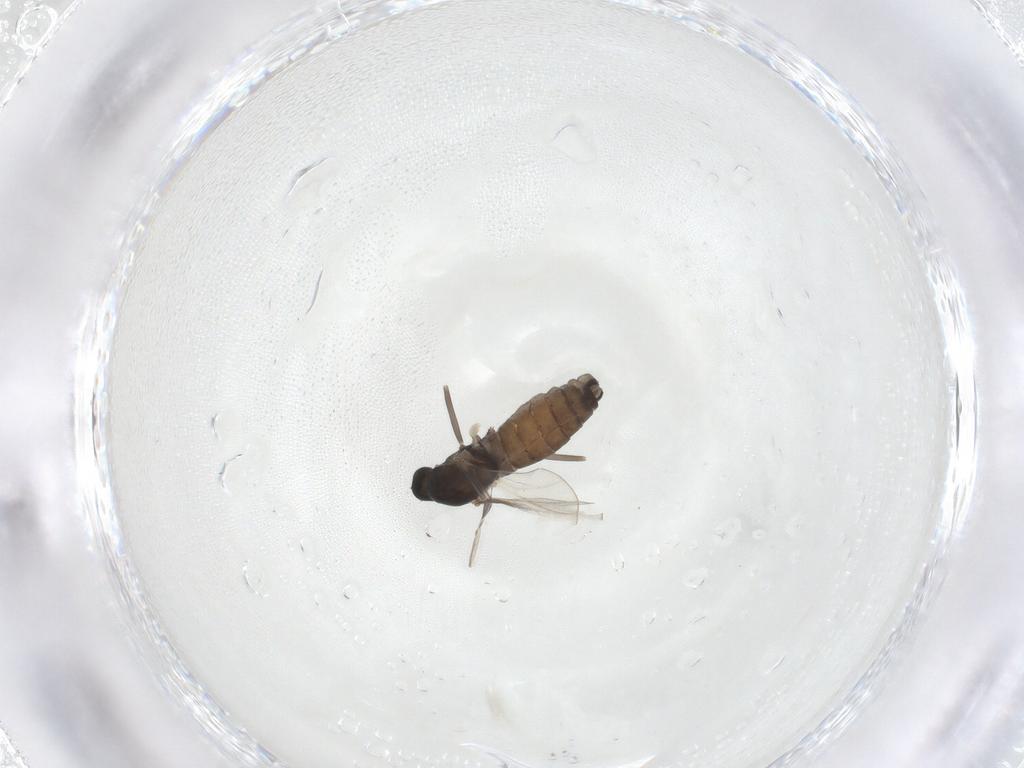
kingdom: Animalia
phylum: Arthropoda
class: Insecta
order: Diptera
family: Cecidomyiidae
